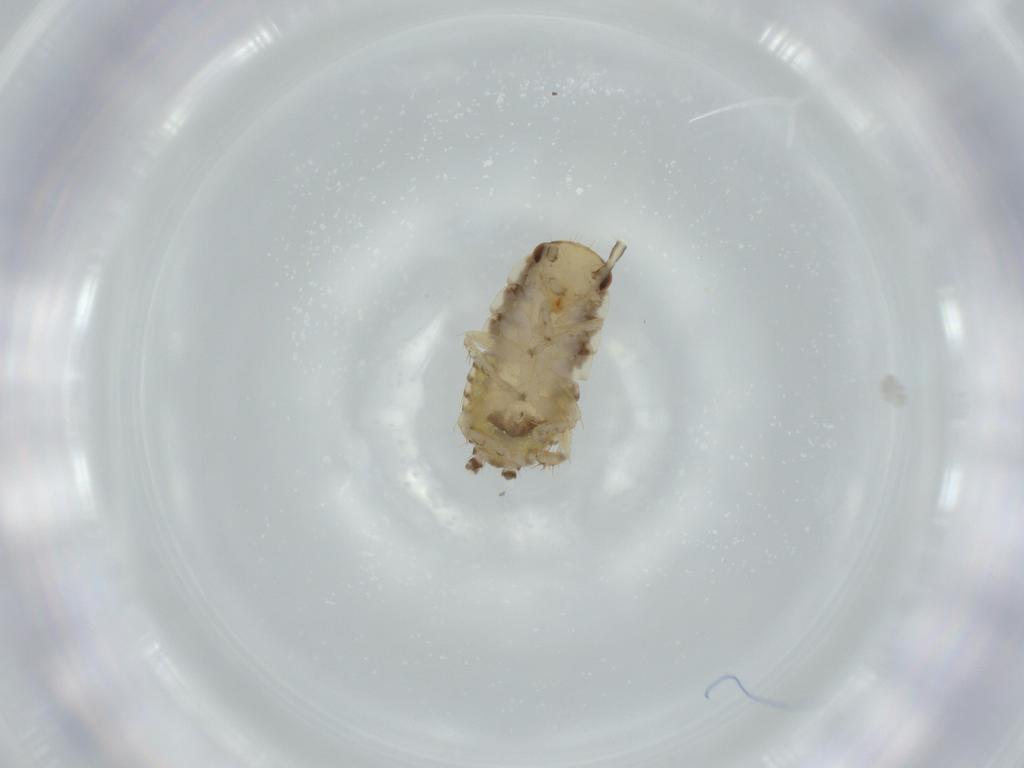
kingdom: Animalia
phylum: Arthropoda
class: Insecta
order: Blattodea
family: Ectobiidae
